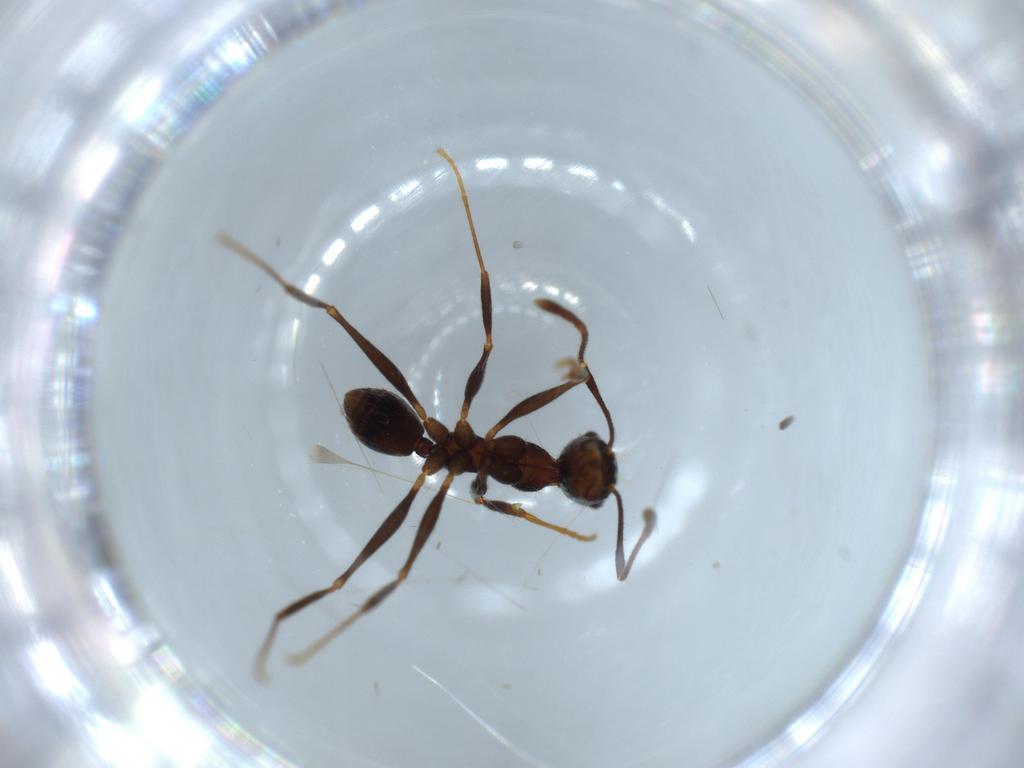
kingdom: Animalia
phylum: Arthropoda
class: Insecta
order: Hymenoptera
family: Formicidae
